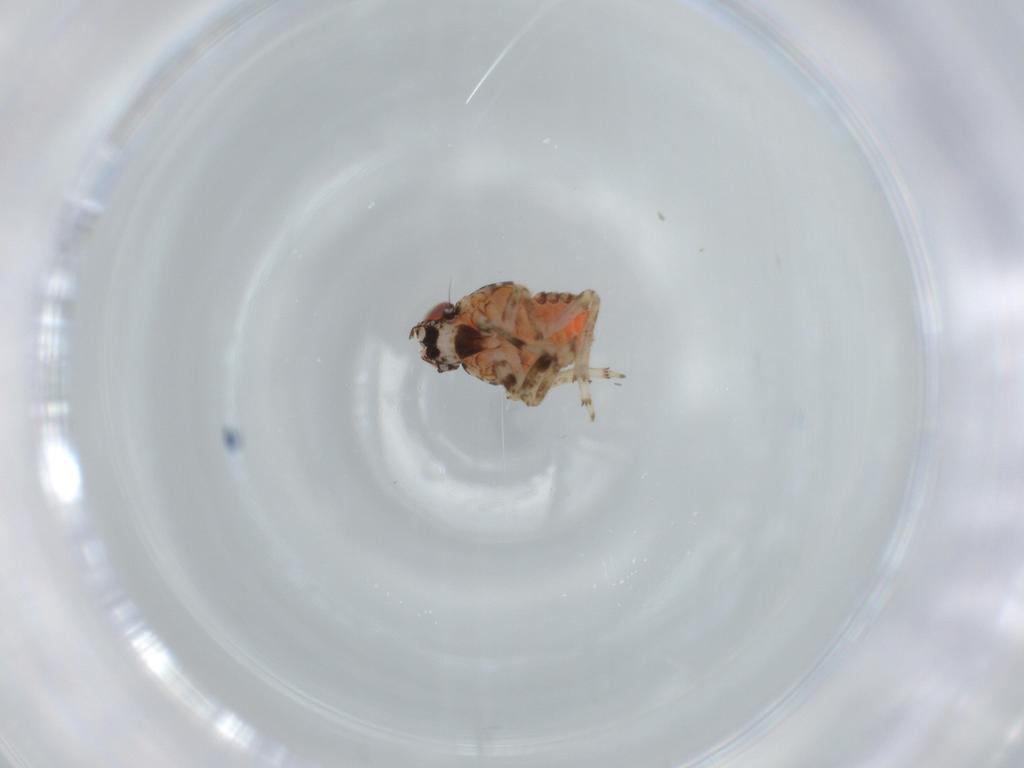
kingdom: Animalia
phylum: Arthropoda
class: Insecta
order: Hemiptera
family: Issidae
